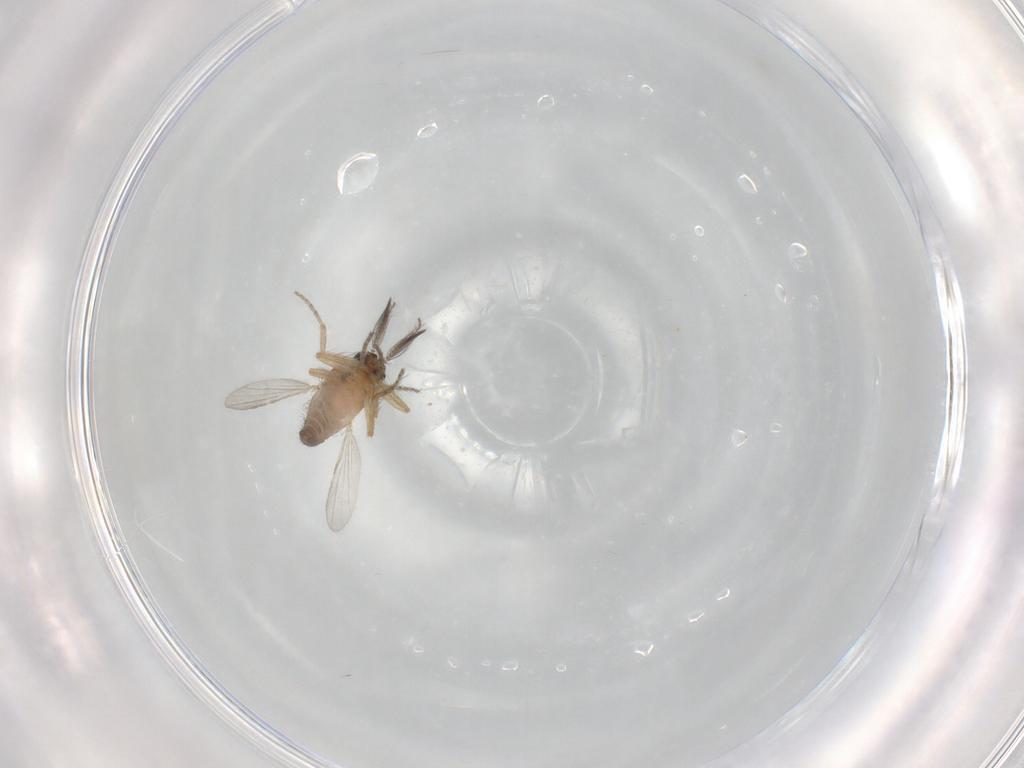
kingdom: Animalia
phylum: Arthropoda
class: Insecta
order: Diptera
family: Ceratopogonidae
